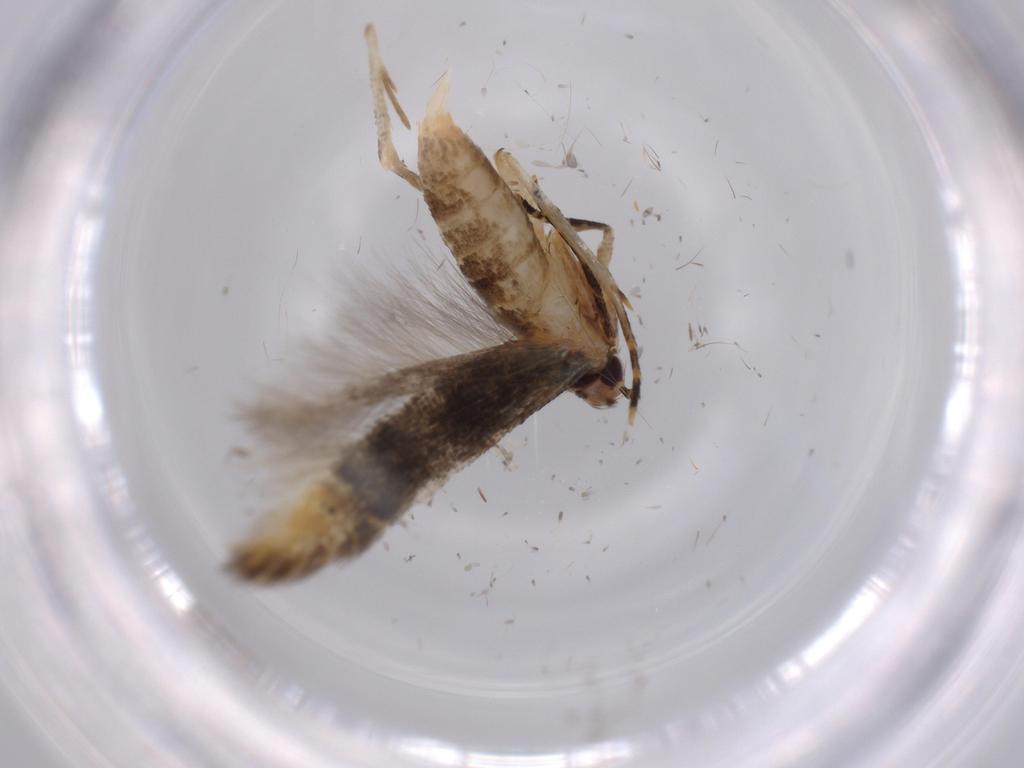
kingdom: Animalia
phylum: Arthropoda
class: Insecta
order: Lepidoptera
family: Stathmopodidae
